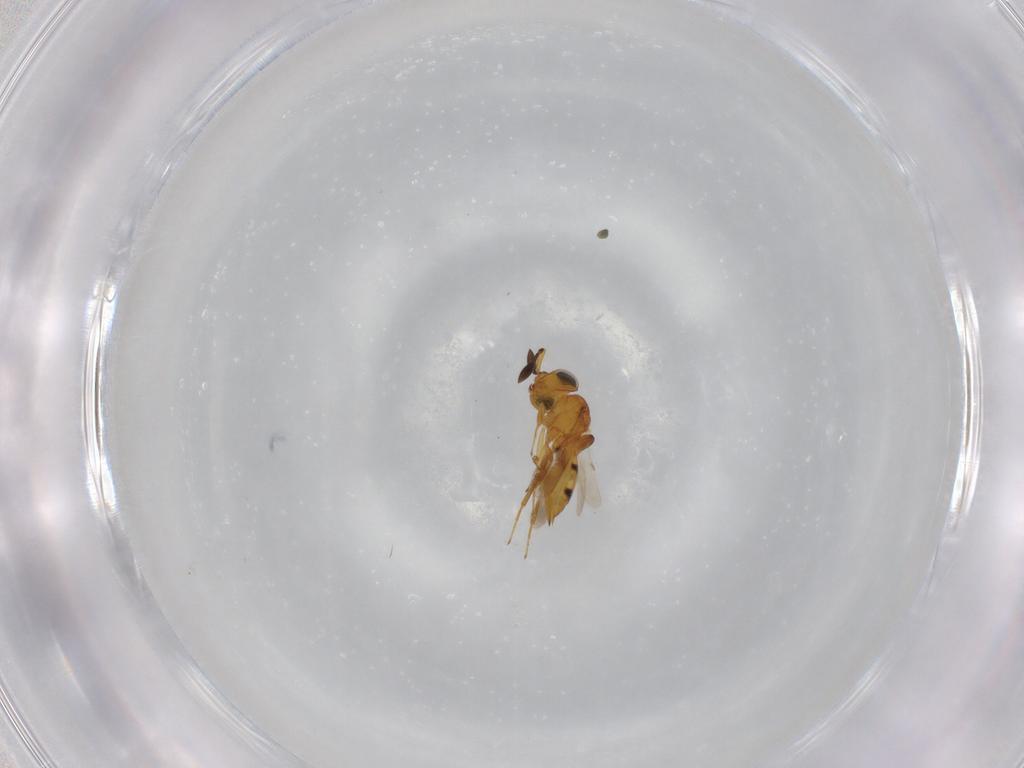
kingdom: Animalia
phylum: Arthropoda
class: Insecta
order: Hymenoptera
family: Scelionidae
